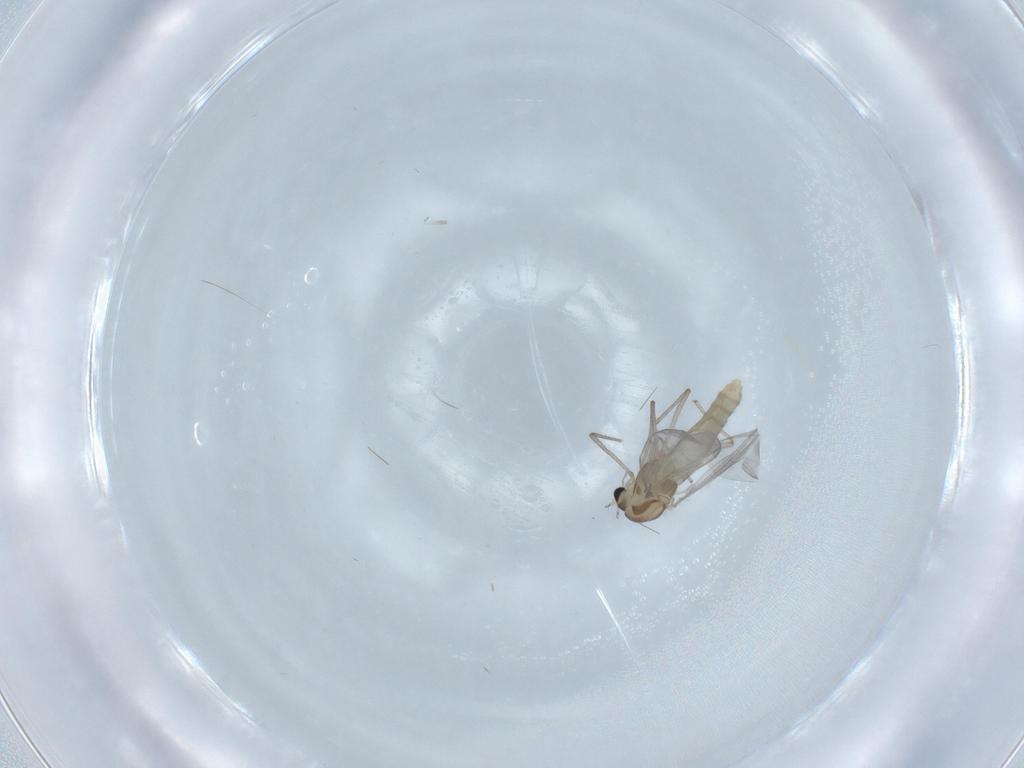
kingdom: Animalia
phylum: Arthropoda
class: Insecta
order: Diptera
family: Chironomidae
